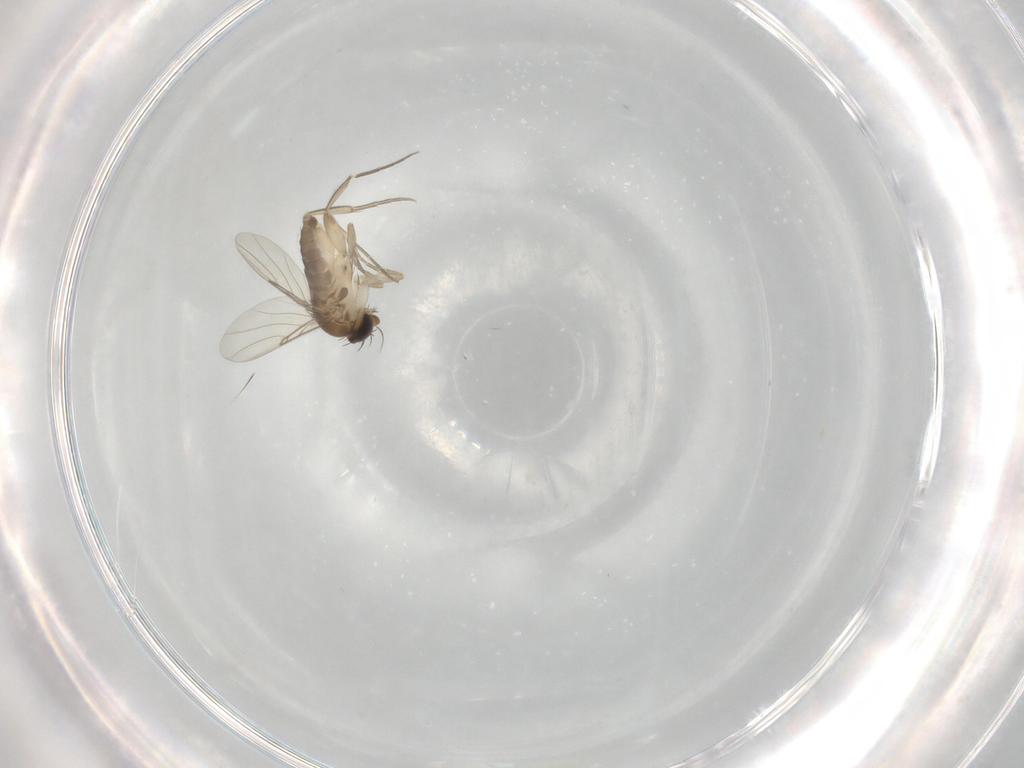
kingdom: Animalia
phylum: Arthropoda
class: Insecta
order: Diptera
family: Phoridae
